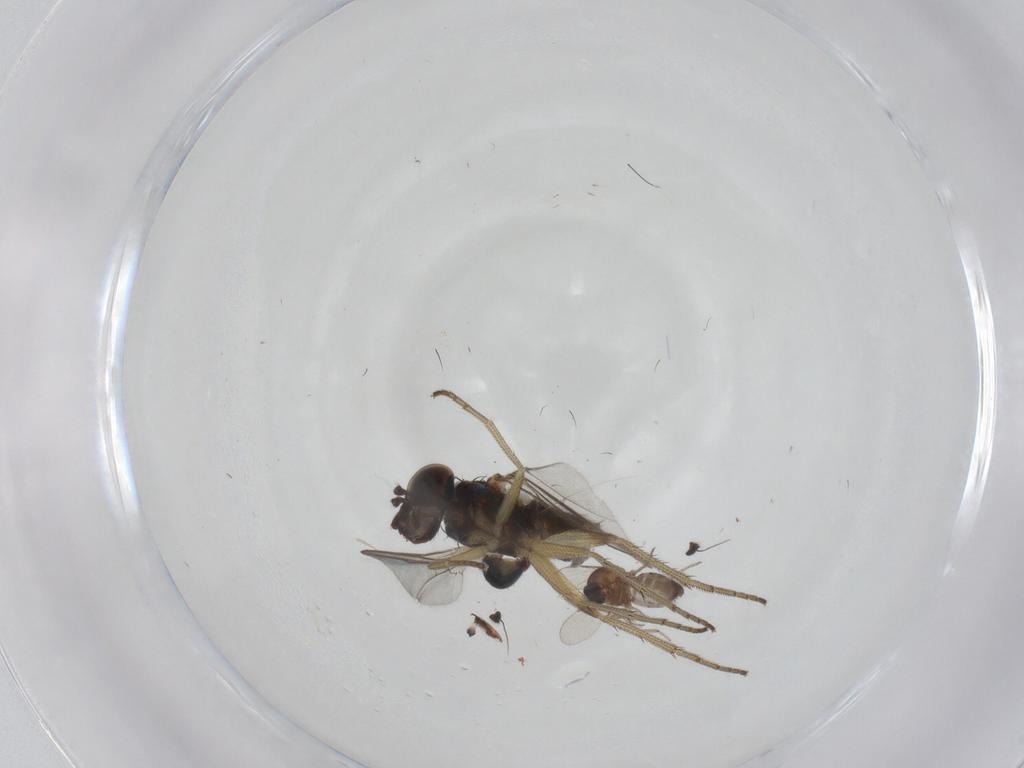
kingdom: Animalia
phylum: Arthropoda
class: Insecta
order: Diptera
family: Dolichopodidae
